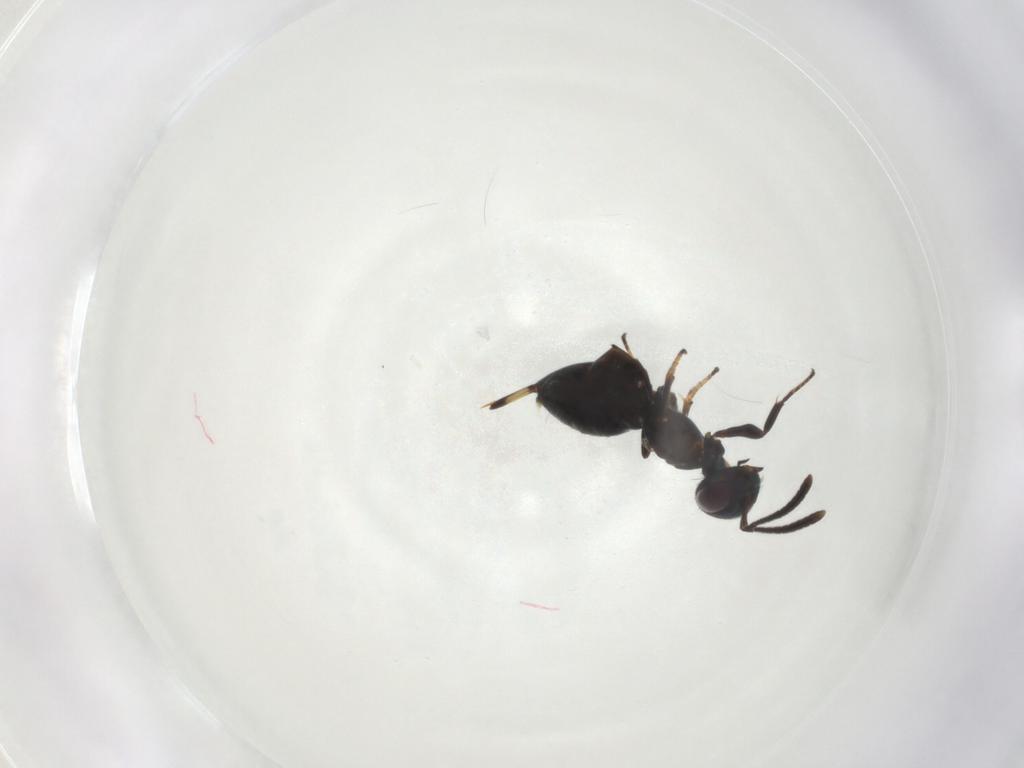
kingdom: Animalia
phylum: Arthropoda
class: Insecta
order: Hymenoptera
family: Eupelmidae
